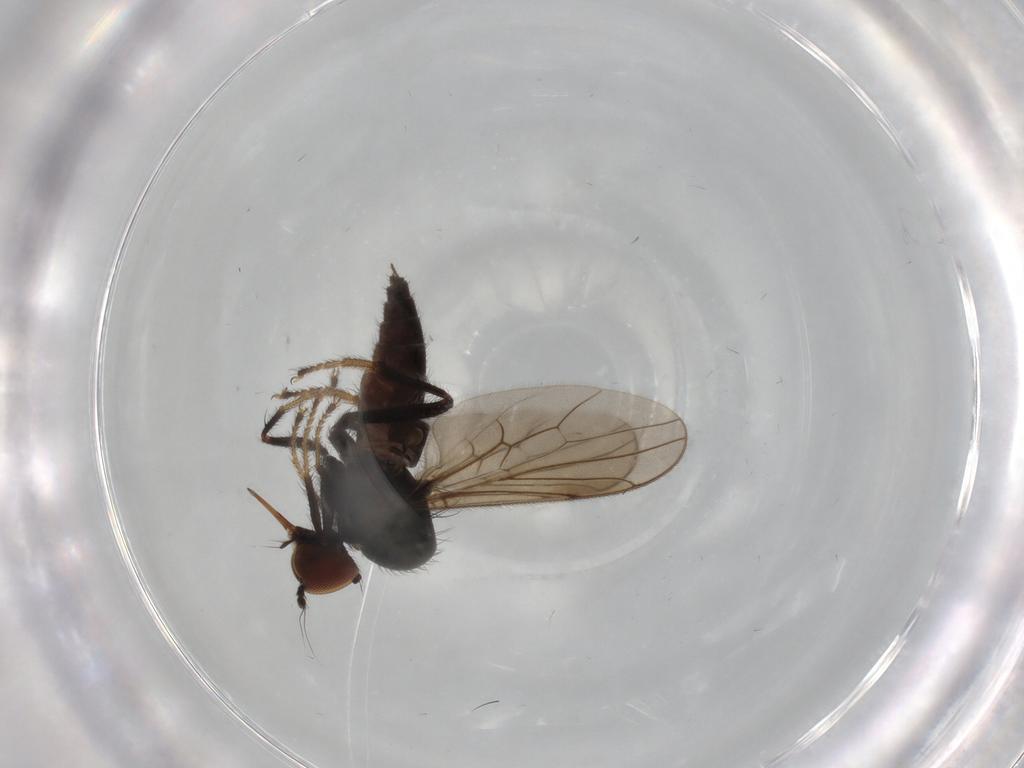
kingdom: Animalia
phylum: Arthropoda
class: Insecta
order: Diptera
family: Hybotidae
